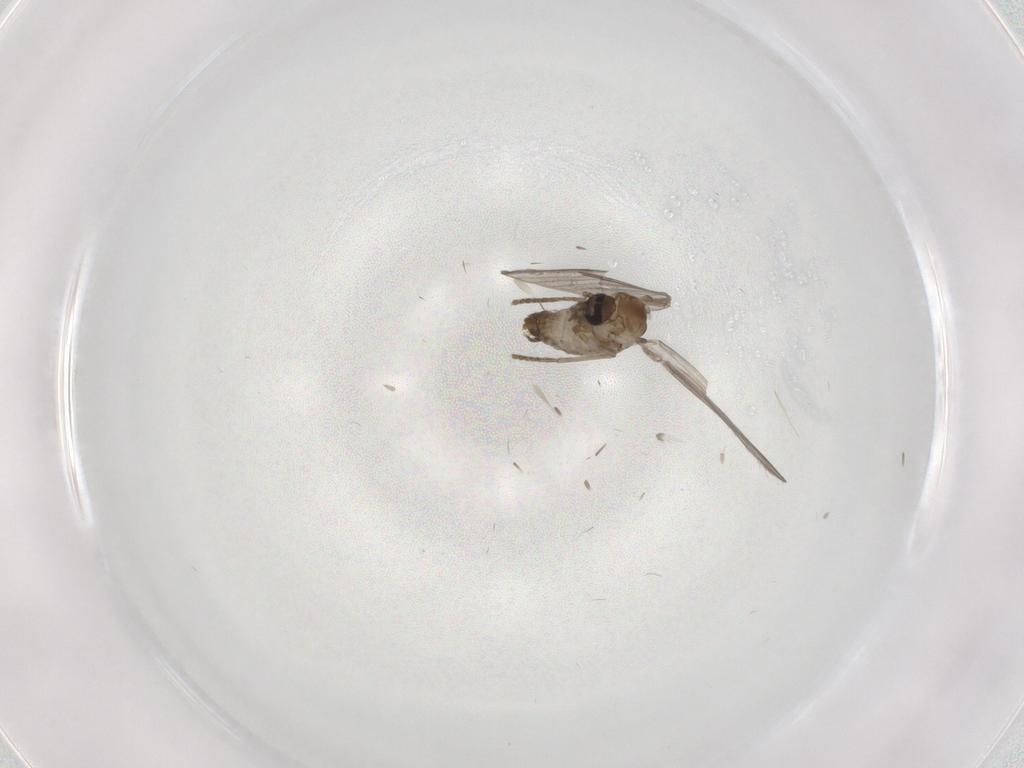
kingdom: Animalia
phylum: Arthropoda
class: Insecta
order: Diptera
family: Psychodidae
